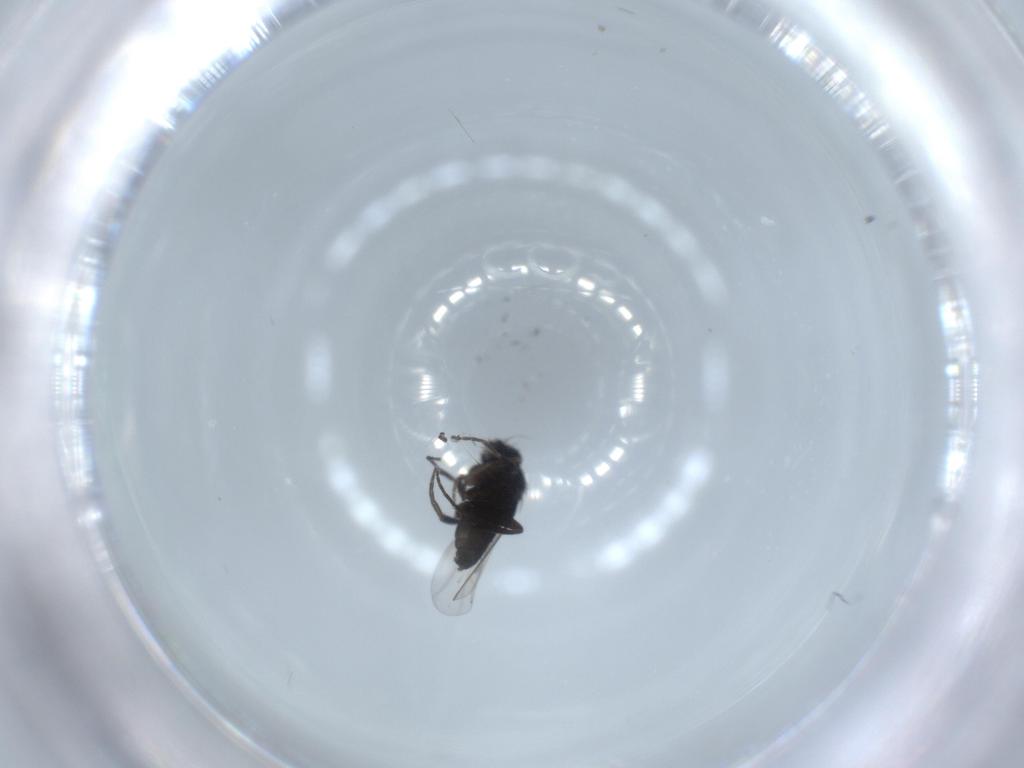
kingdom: Animalia
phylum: Arthropoda
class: Insecta
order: Diptera
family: Phoridae
